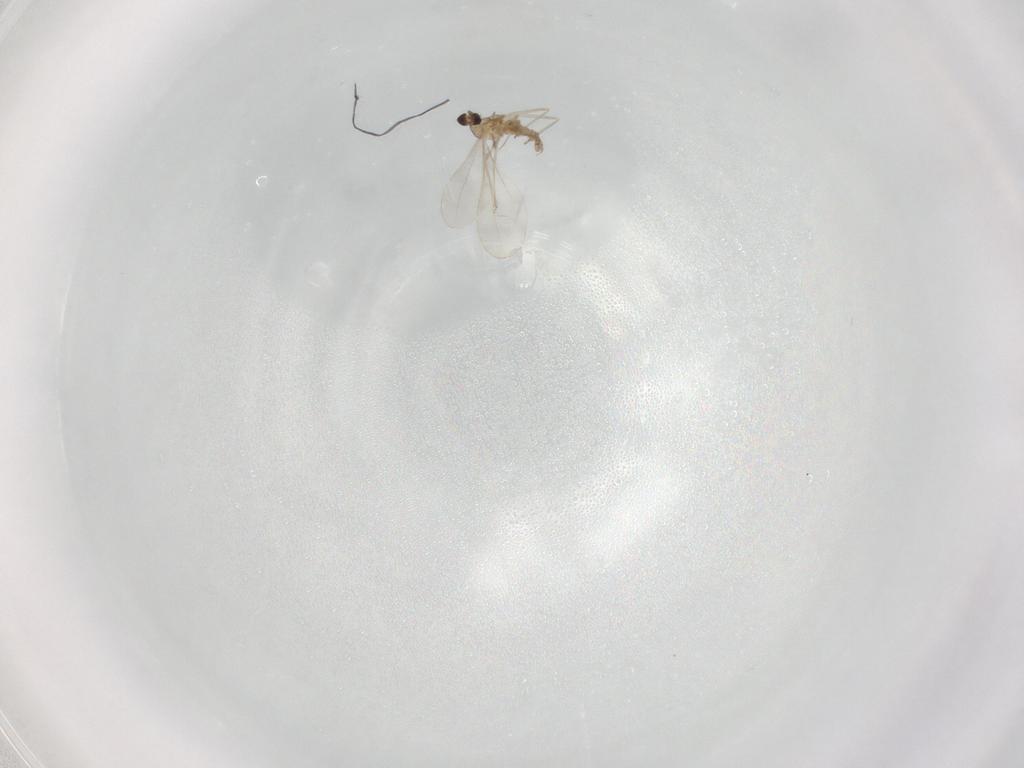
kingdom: Animalia
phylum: Arthropoda
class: Insecta
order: Diptera
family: Cecidomyiidae
